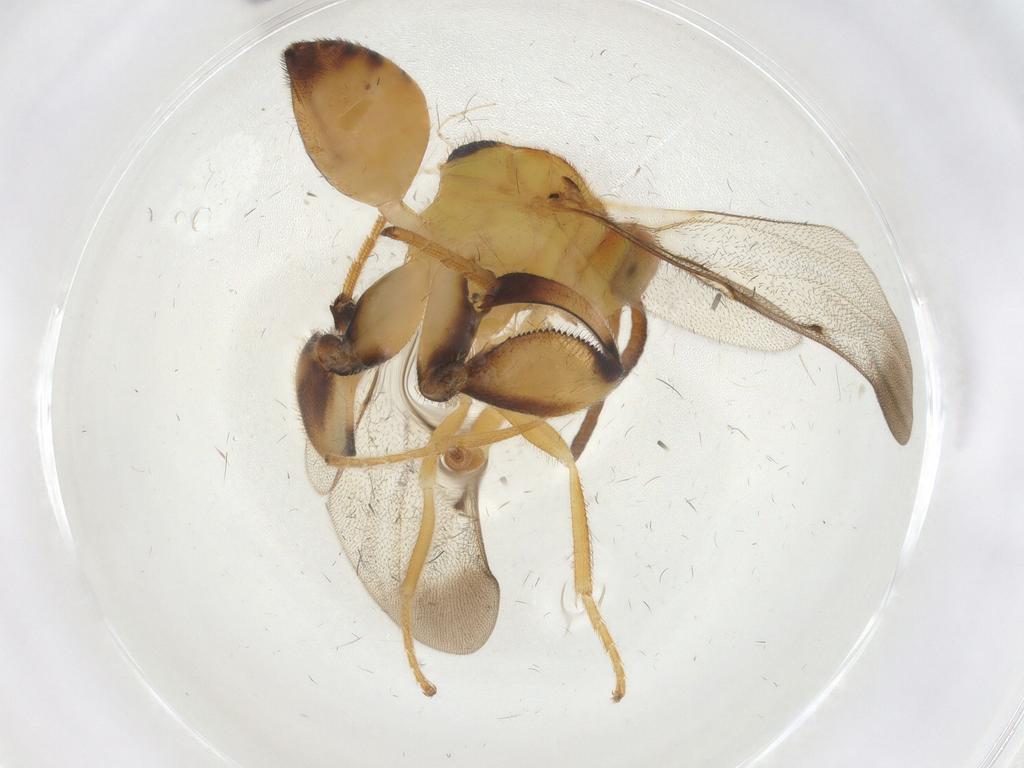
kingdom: Animalia
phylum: Arthropoda
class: Insecta
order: Hymenoptera
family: Chalcididae
